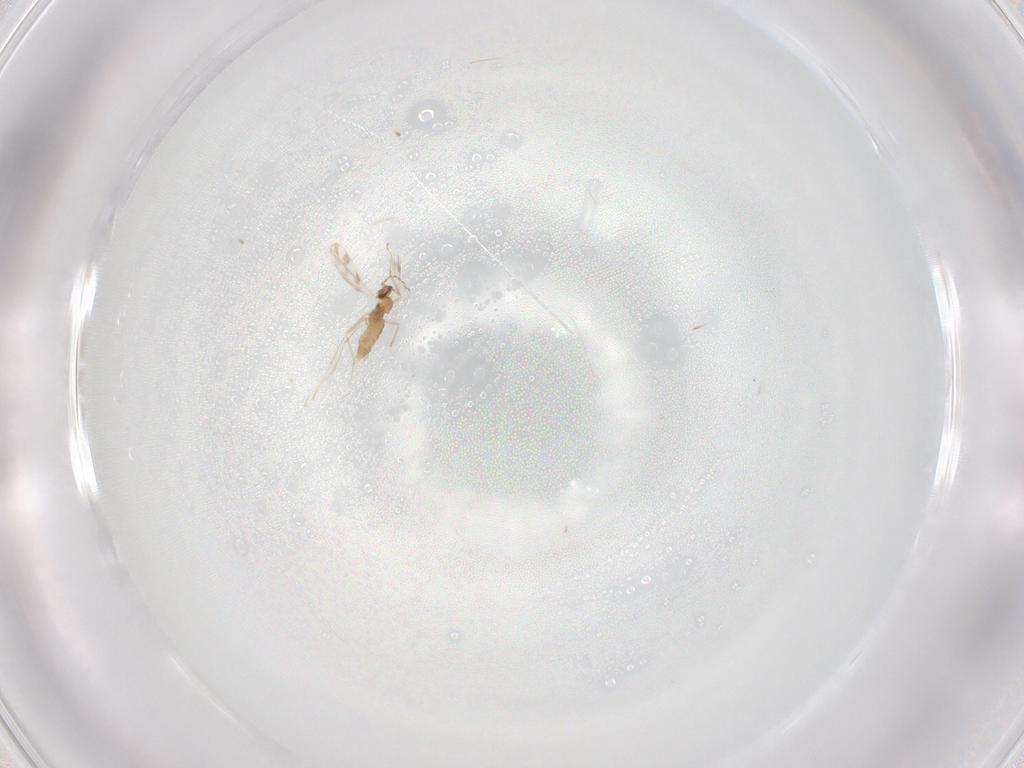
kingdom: Animalia
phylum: Arthropoda
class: Insecta
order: Diptera
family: Cecidomyiidae
